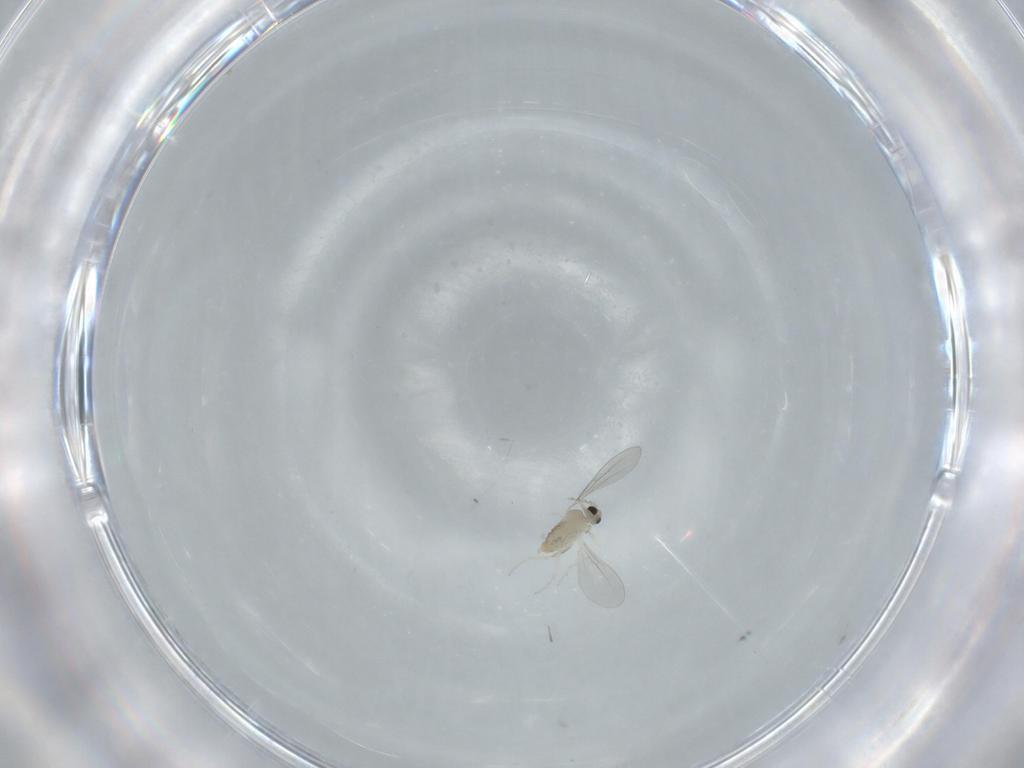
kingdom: Animalia
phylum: Arthropoda
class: Insecta
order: Diptera
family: Cecidomyiidae
